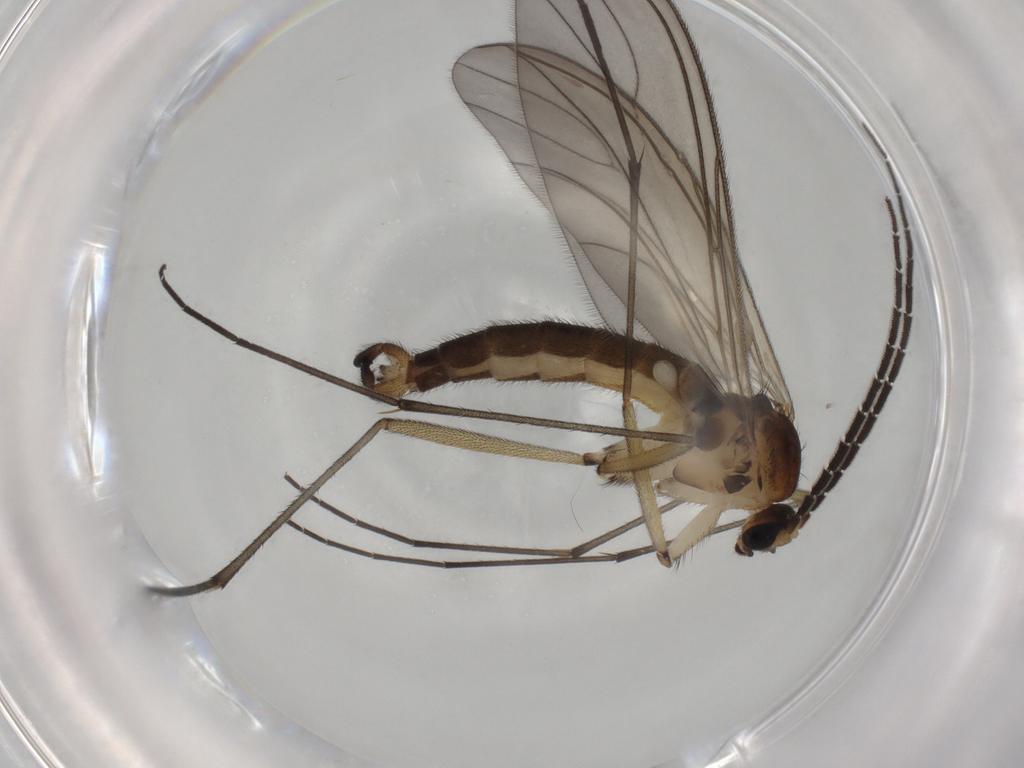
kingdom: Animalia
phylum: Arthropoda
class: Insecta
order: Diptera
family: Sciaridae
